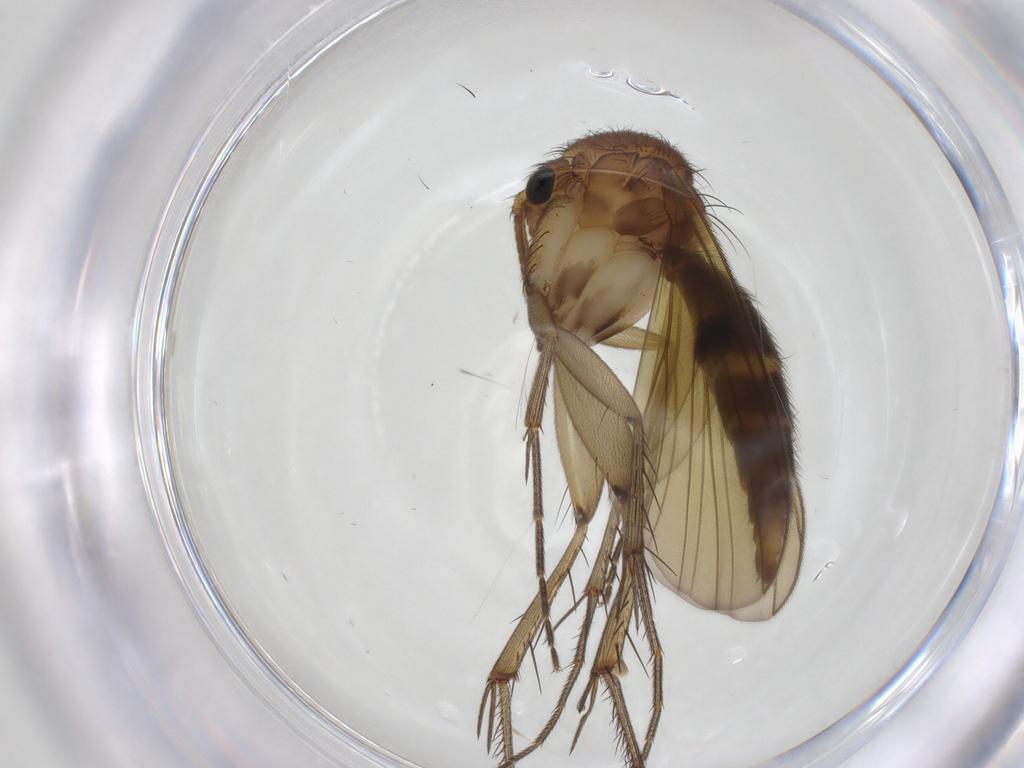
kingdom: Animalia
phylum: Arthropoda
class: Insecta
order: Diptera
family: Mycetophilidae
